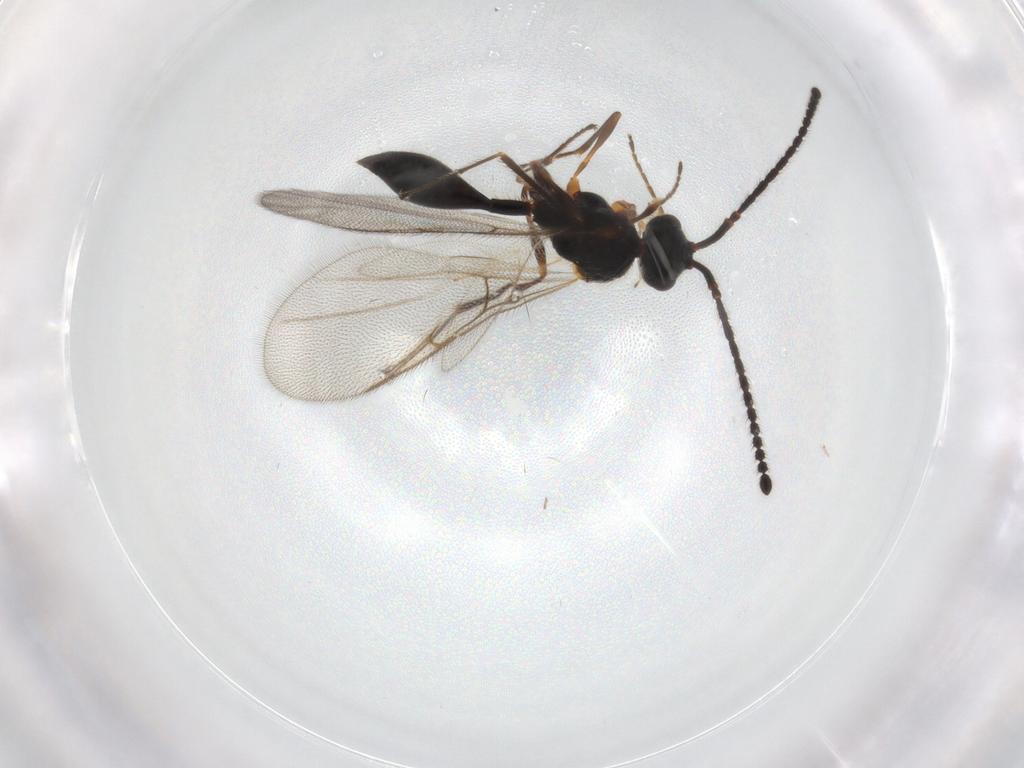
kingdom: Animalia
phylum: Arthropoda
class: Insecta
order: Hymenoptera
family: Diapriidae
